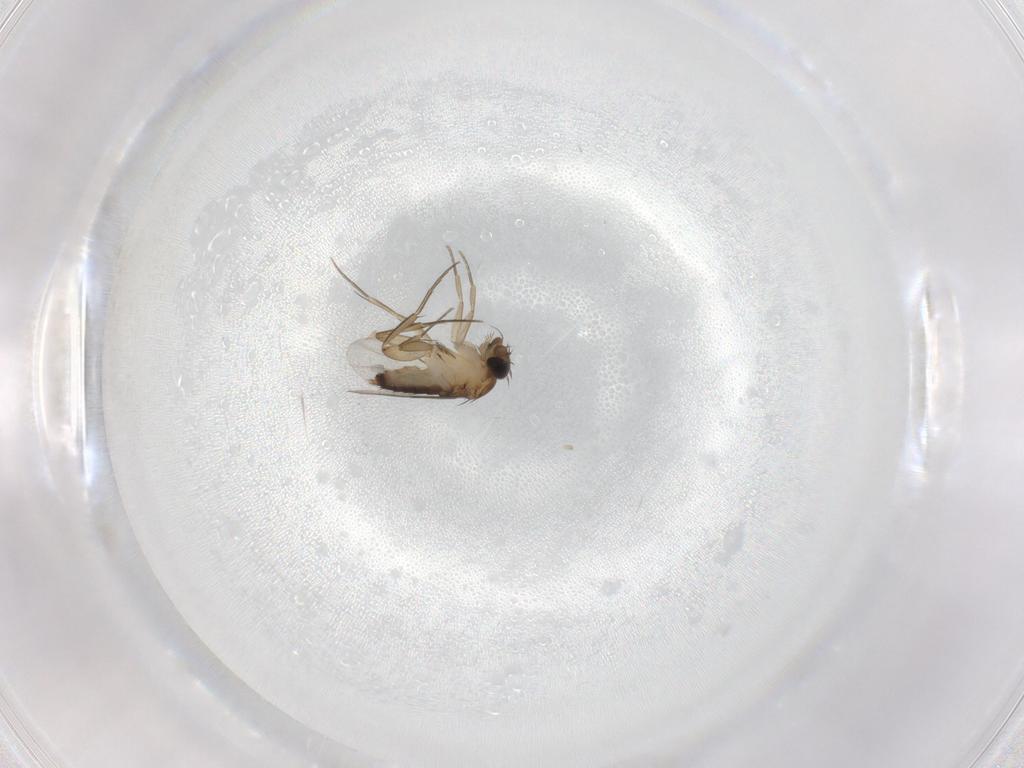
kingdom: Animalia
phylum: Arthropoda
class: Insecta
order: Diptera
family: Phoridae
